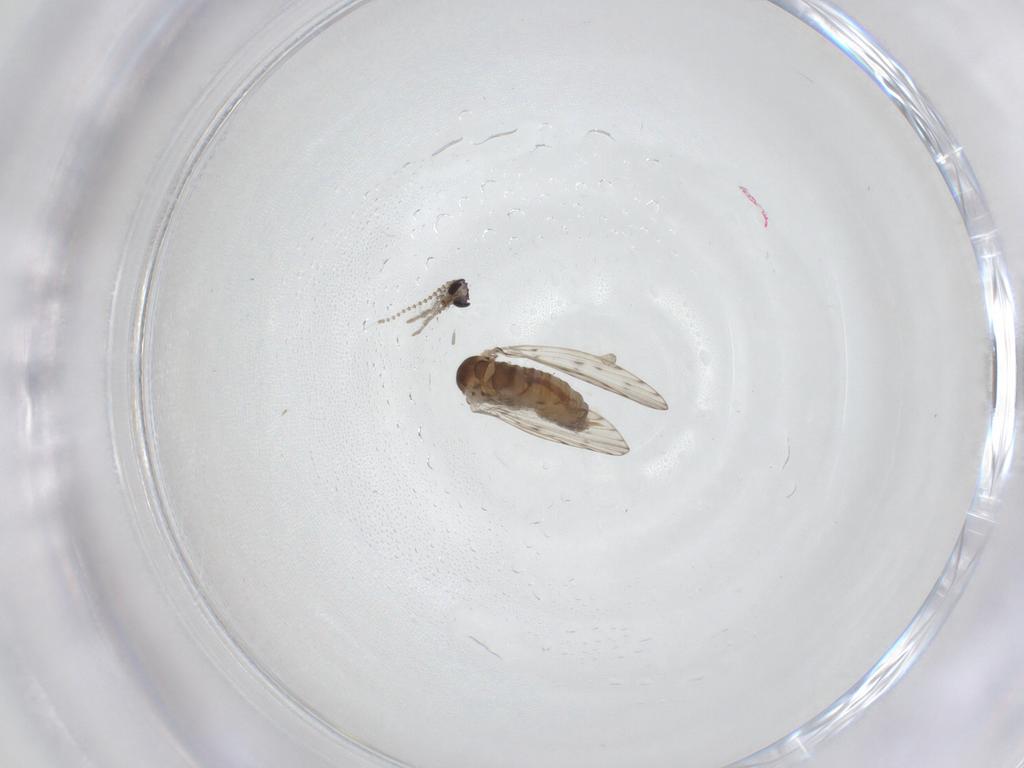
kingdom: Animalia
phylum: Arthropoda
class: Insecta
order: Diptera
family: Psychodidae
